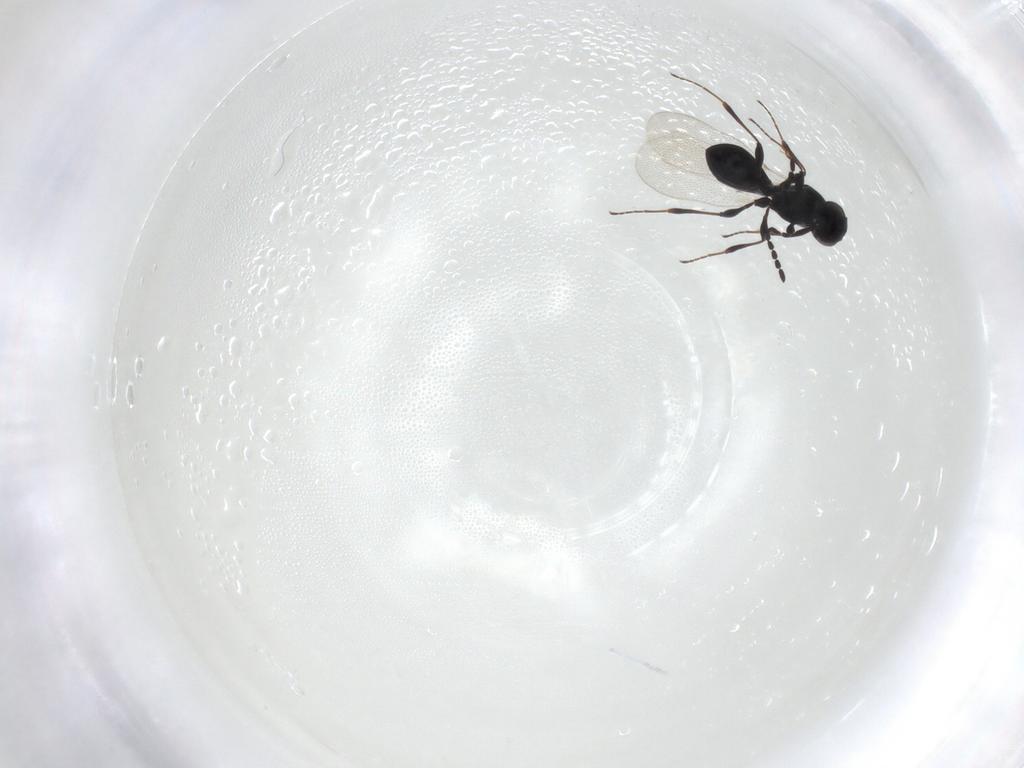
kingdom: Animalia
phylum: Arthropoda
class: Insecta
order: Hymenoptera
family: Platygastridae
